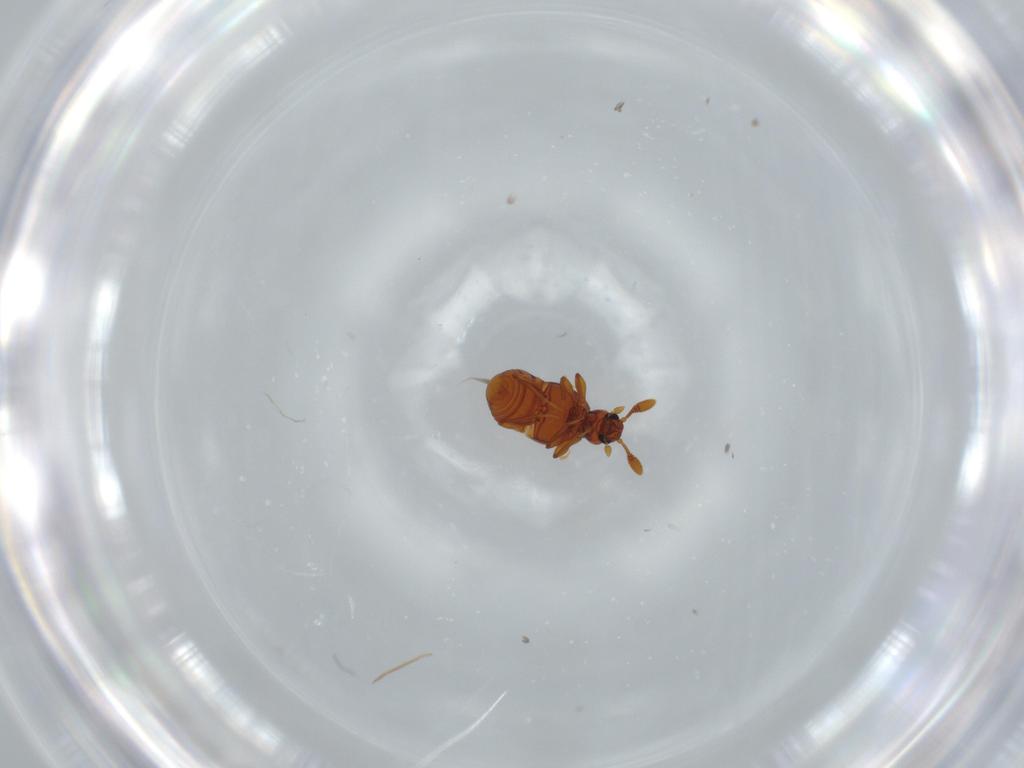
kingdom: Animalia
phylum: Arthropoda
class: Insecta
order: Coleoptera
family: Staphylinidae
